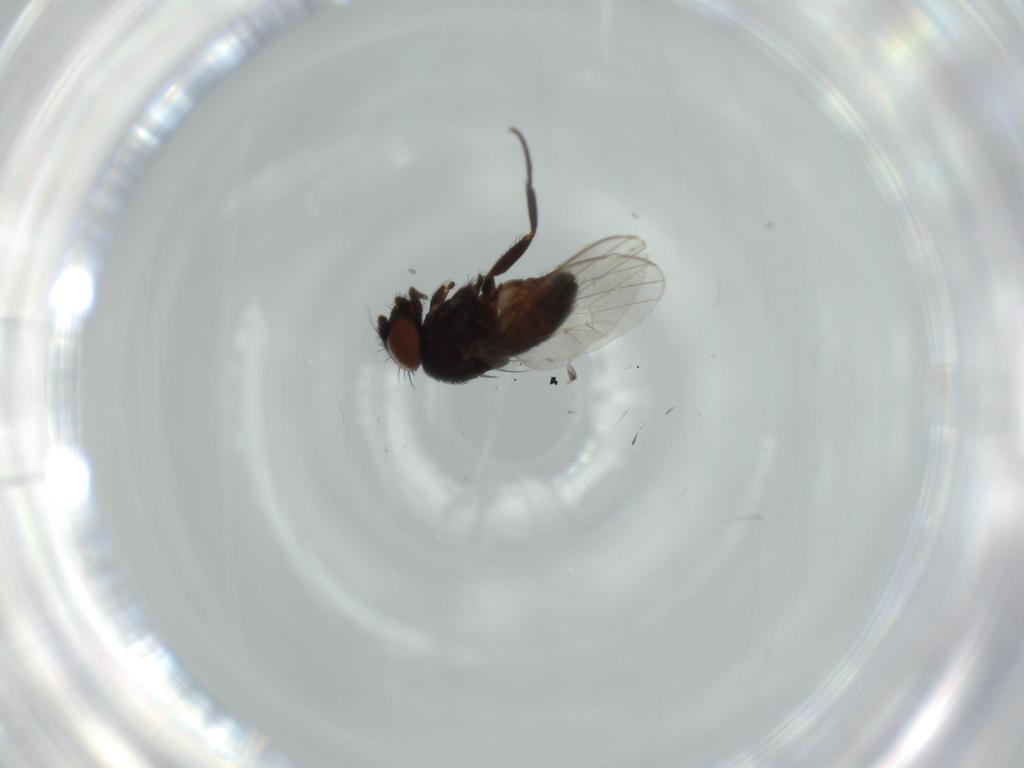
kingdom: Animalia
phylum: Arthropoda
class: Insecta
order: Diptera
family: Milichiidae
